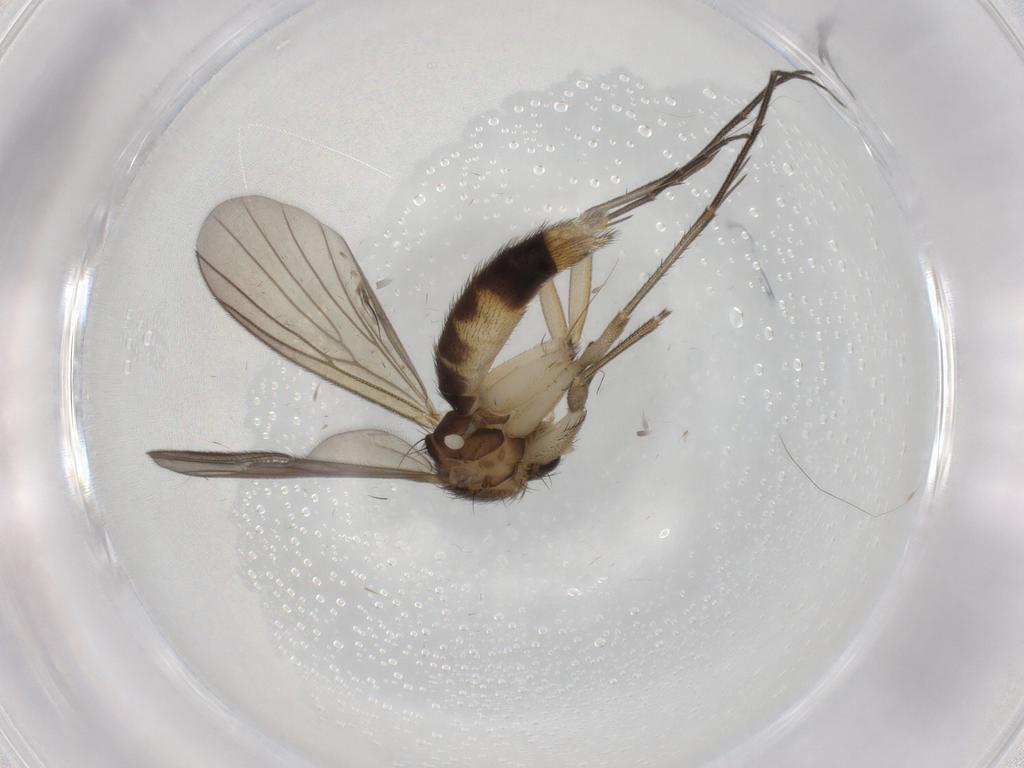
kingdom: Animalia
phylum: Arthropoda
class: Insecta
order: Diptera
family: Mycetophilidae
